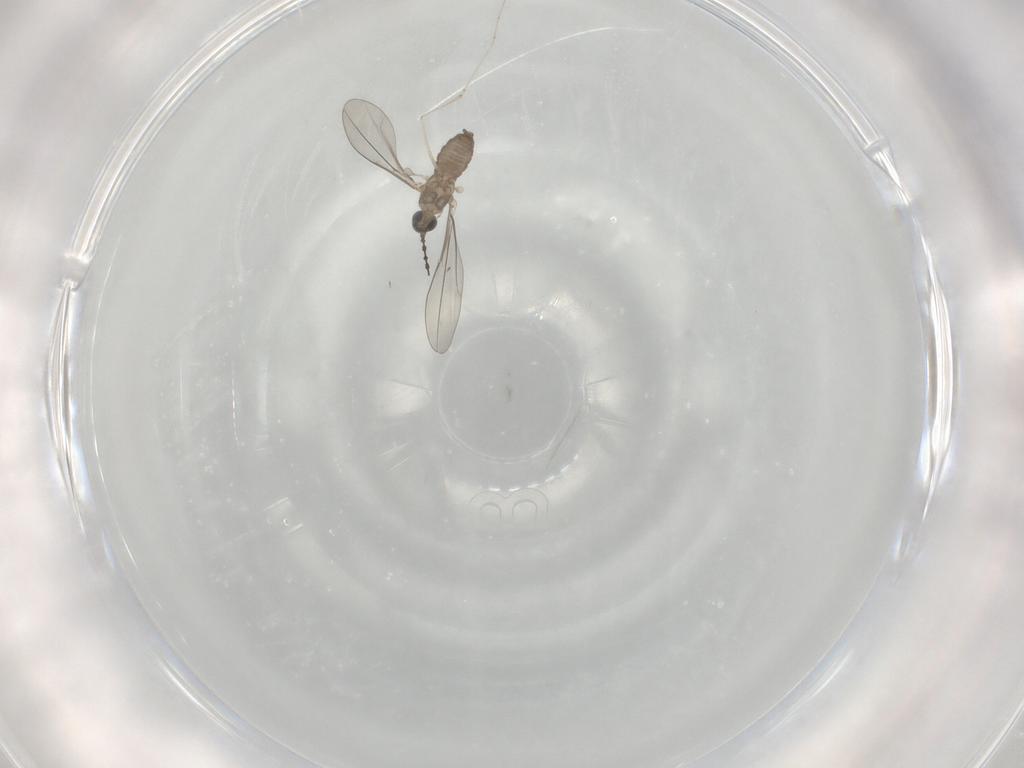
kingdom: Animalia
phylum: Arthropoda
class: Insecta
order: Diptera
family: Cecidomyiidae
